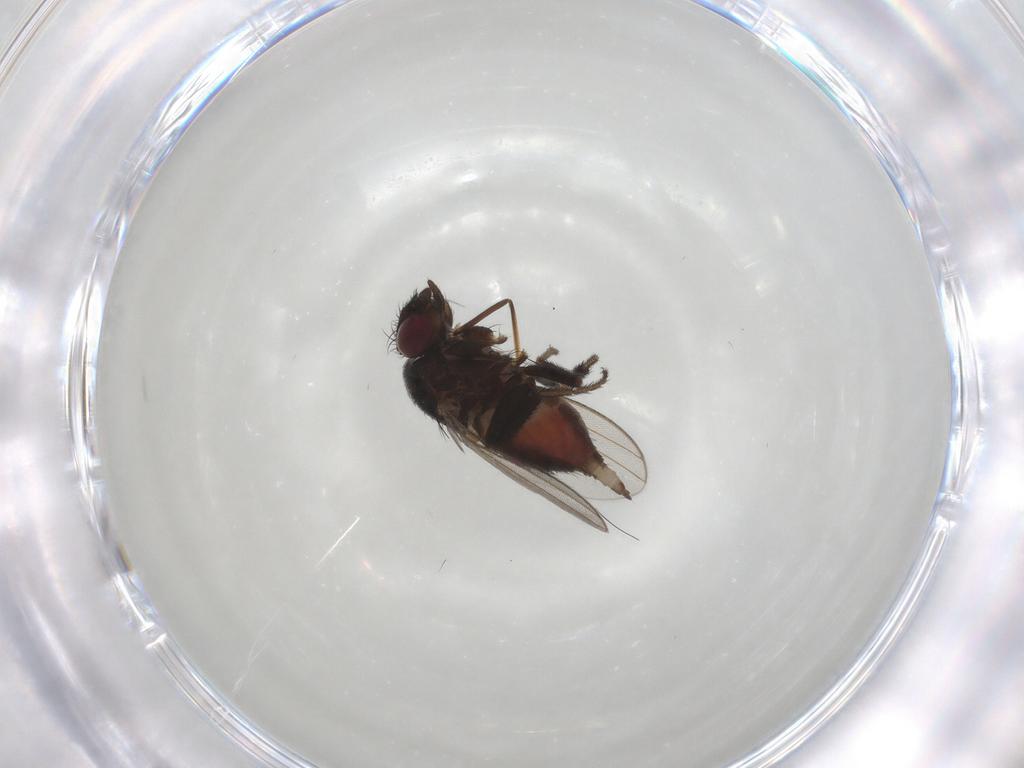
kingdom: Animalia
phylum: Arthropoda
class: Insecta
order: Diptera
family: Milichiidae
